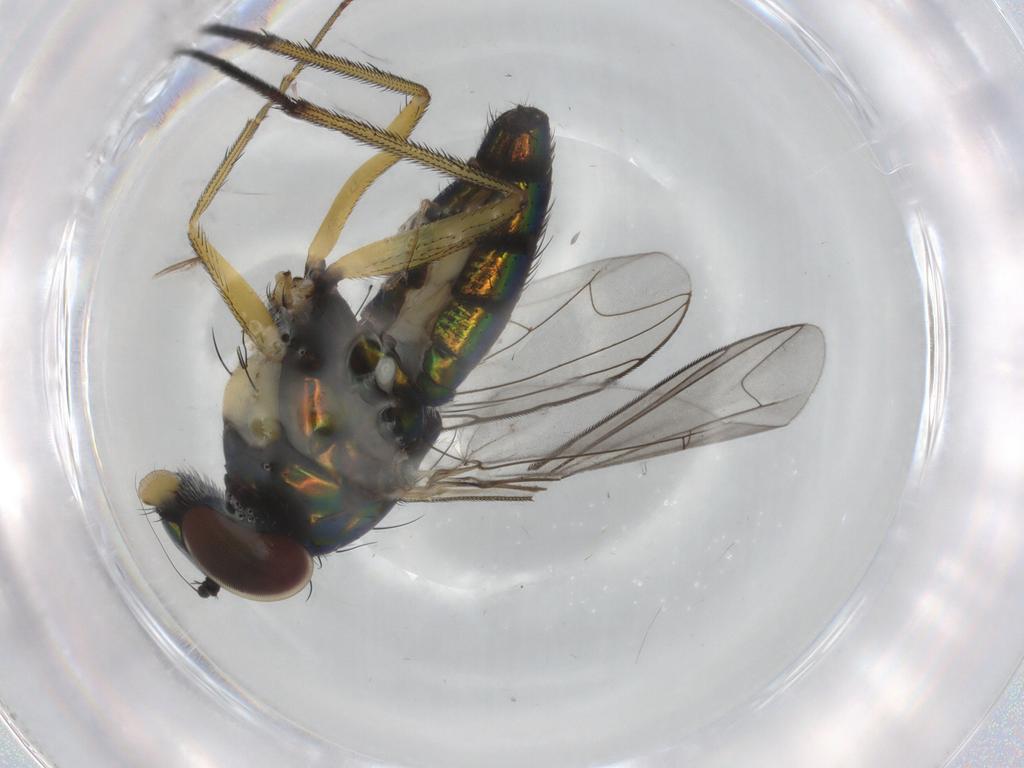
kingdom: Animalia
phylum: Arthropoda
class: Insecta
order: Diptera
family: Dolichopodidae
